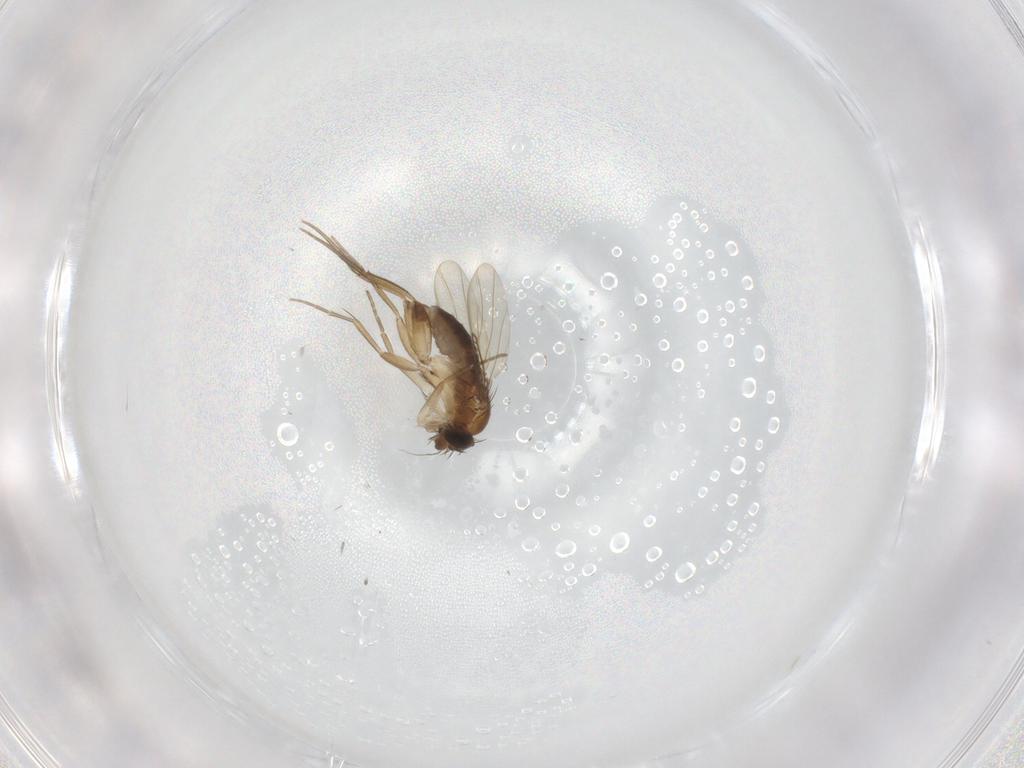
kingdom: Animalia
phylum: Arthropoda
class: Insecta
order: Diptera
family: Phoridae
